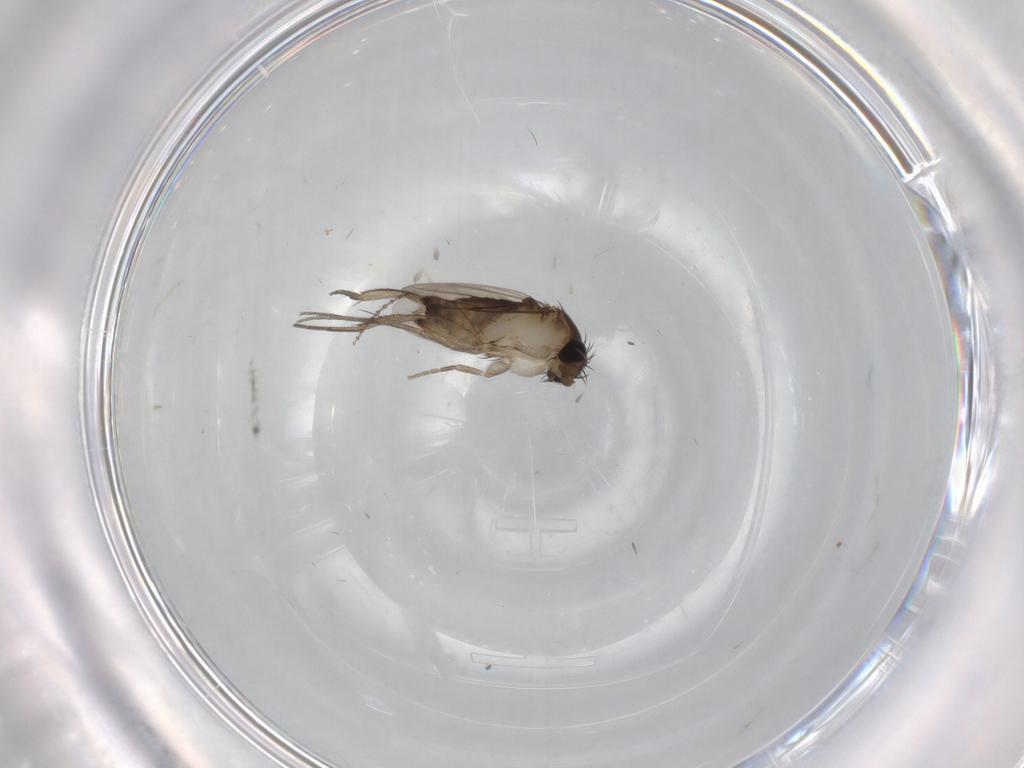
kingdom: Animalia
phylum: Arthropoda
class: Insecta
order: Diptera
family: Phoridae
